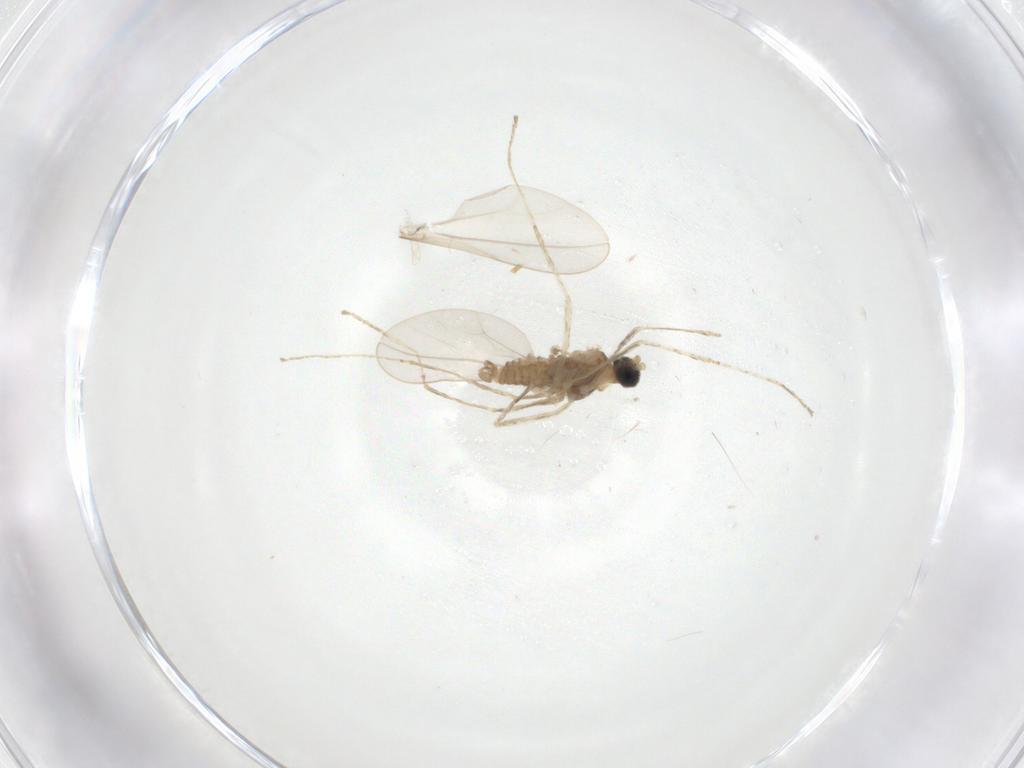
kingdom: Animalia
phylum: Arthropoda
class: Insecta
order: Diptera
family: Cecidomyiidae
